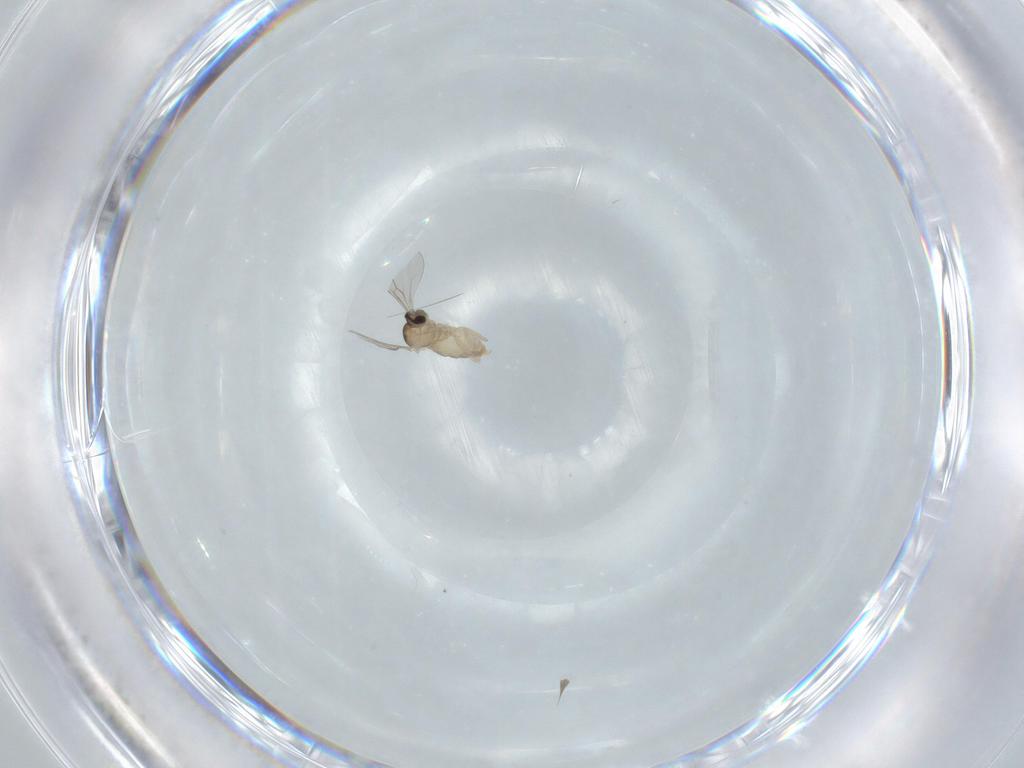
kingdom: Animalia
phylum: Arthropoda
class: Insecta
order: Diptera
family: Cecidomyiidae
